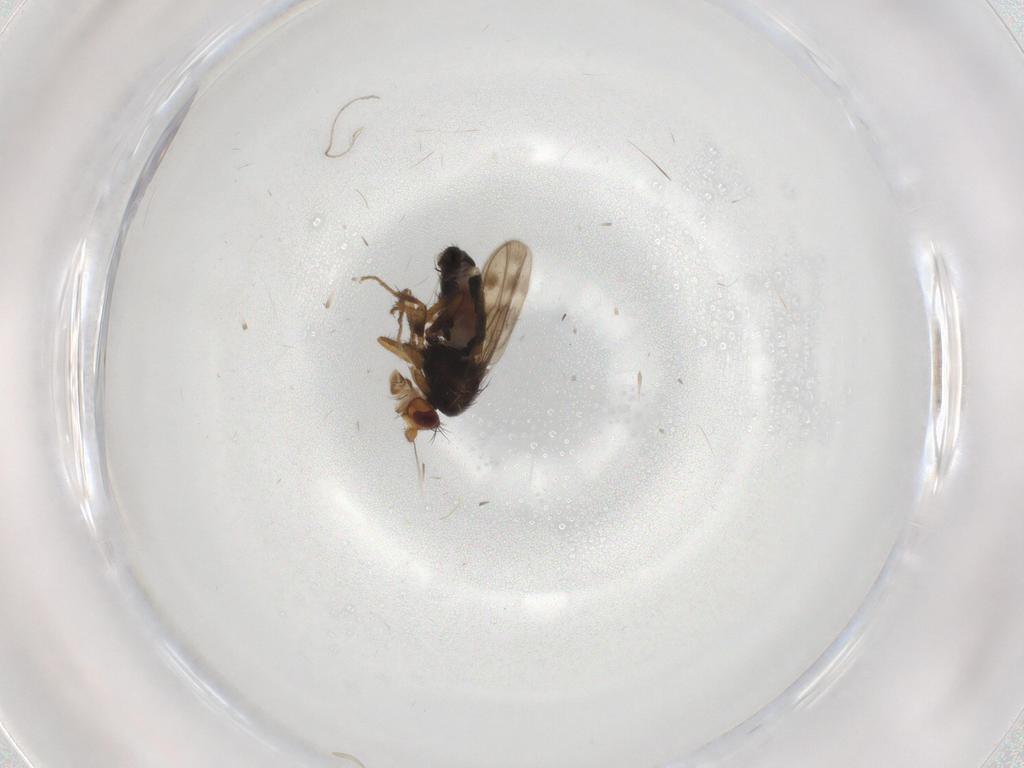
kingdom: Animalia
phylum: Arthropoda
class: Insecta
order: Diptera
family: Sphaeroceridae
